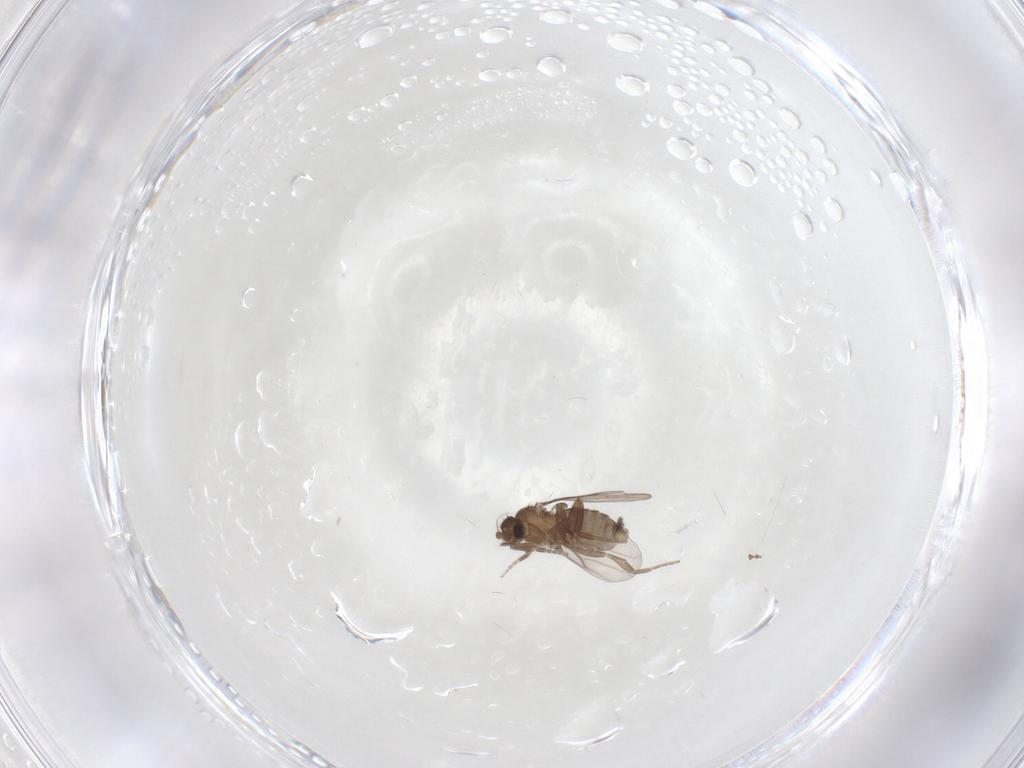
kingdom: Animalia
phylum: Arthropoda
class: Insecta
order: Diptera
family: Phoridae
